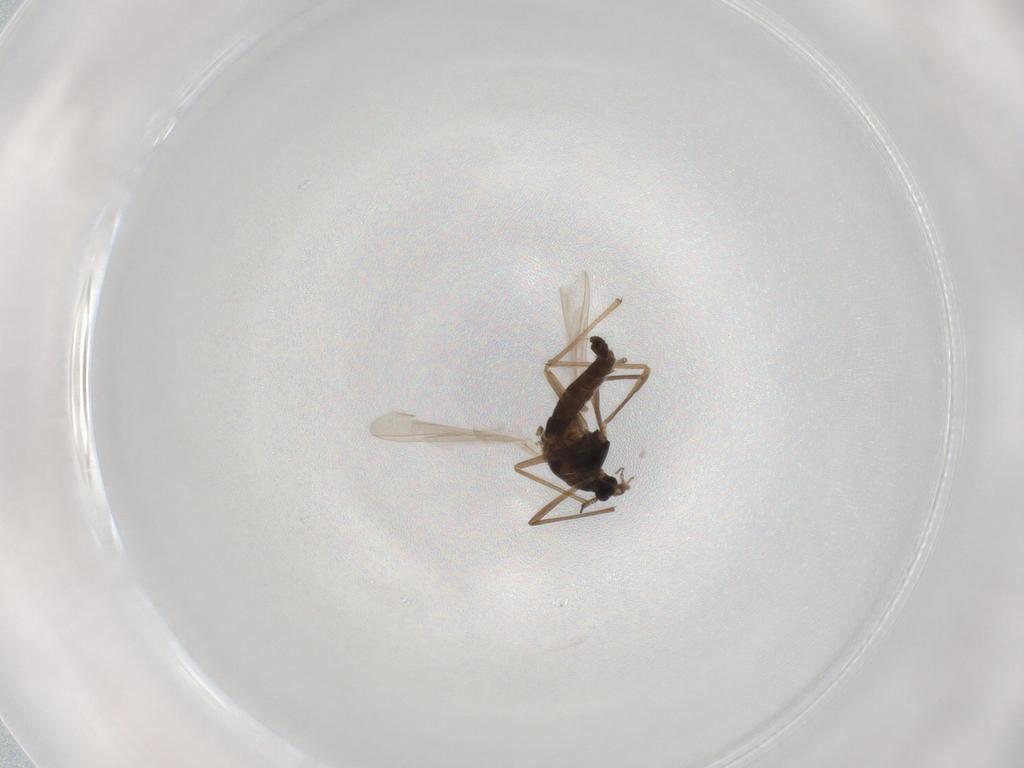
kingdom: Animalia
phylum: Arthropoda
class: Insecta
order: Diptera
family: Chironomidae
